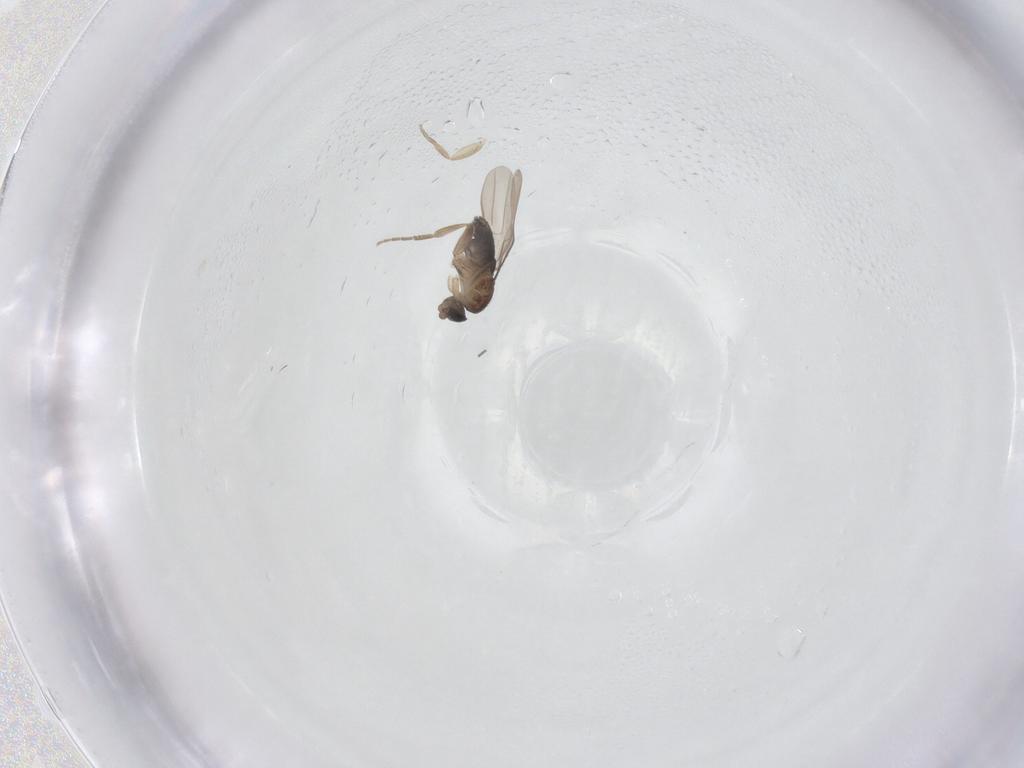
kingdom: Animalia
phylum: Arthropoda
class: Insecta
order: Diptera
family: Phoridae
